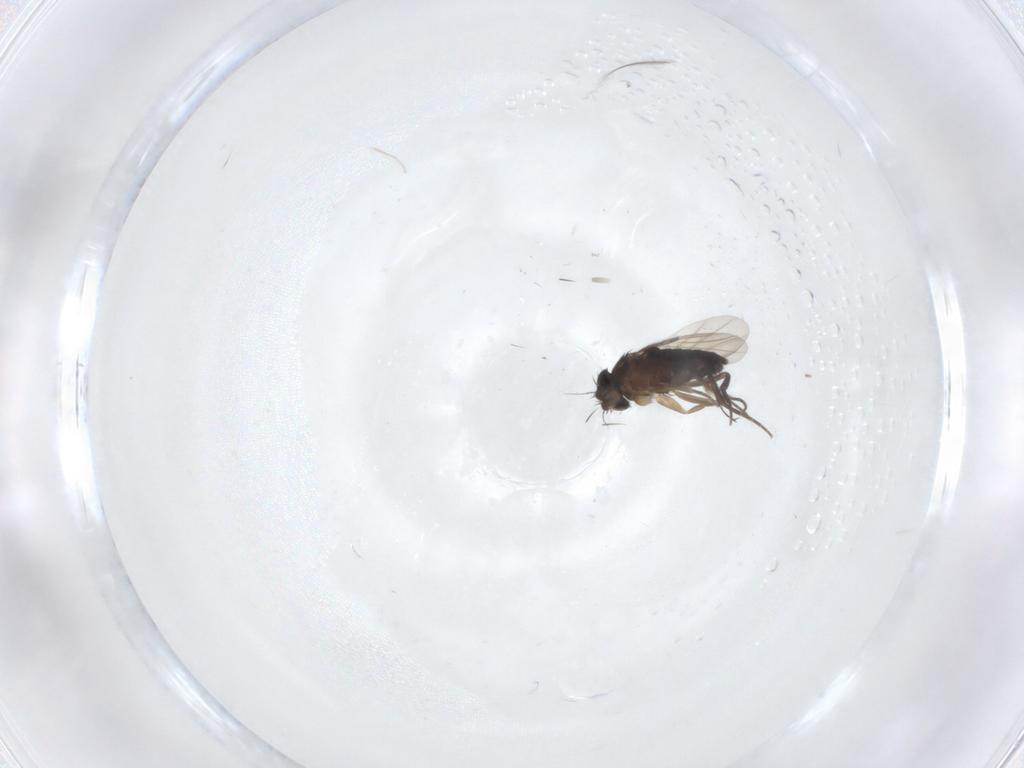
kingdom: Animalia
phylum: Arthropoda
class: Insecta
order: Diptera
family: Phoridae
